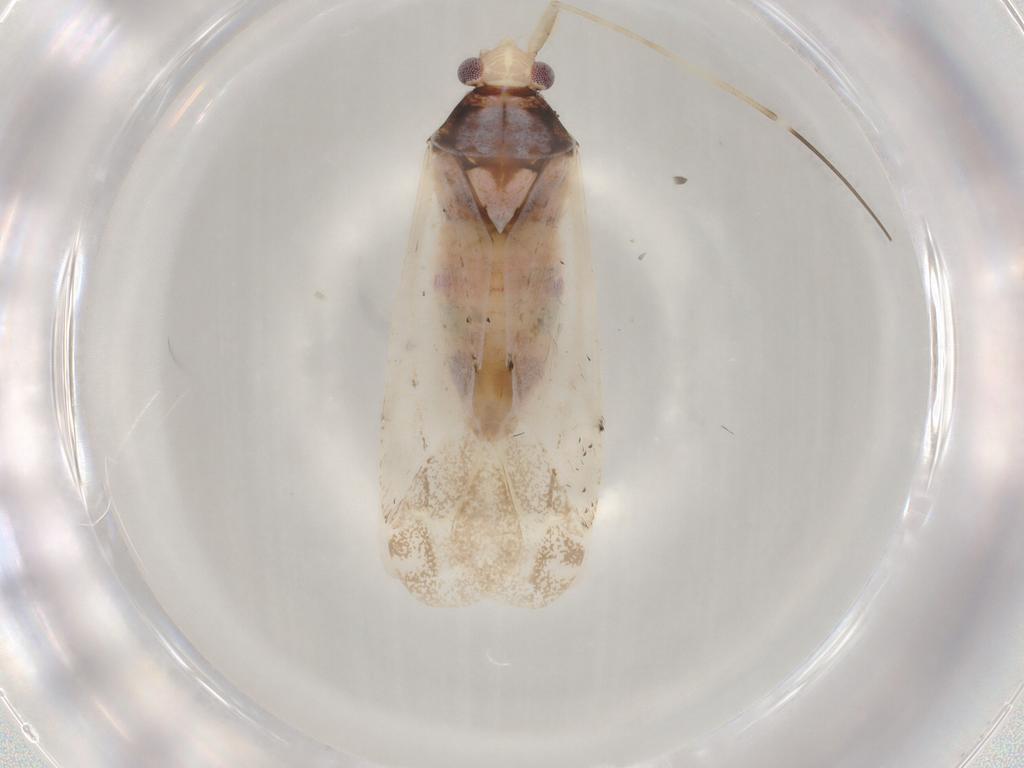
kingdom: Animalia
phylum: Arthropoda
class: Insecta
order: Hemiptera
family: Miridae
